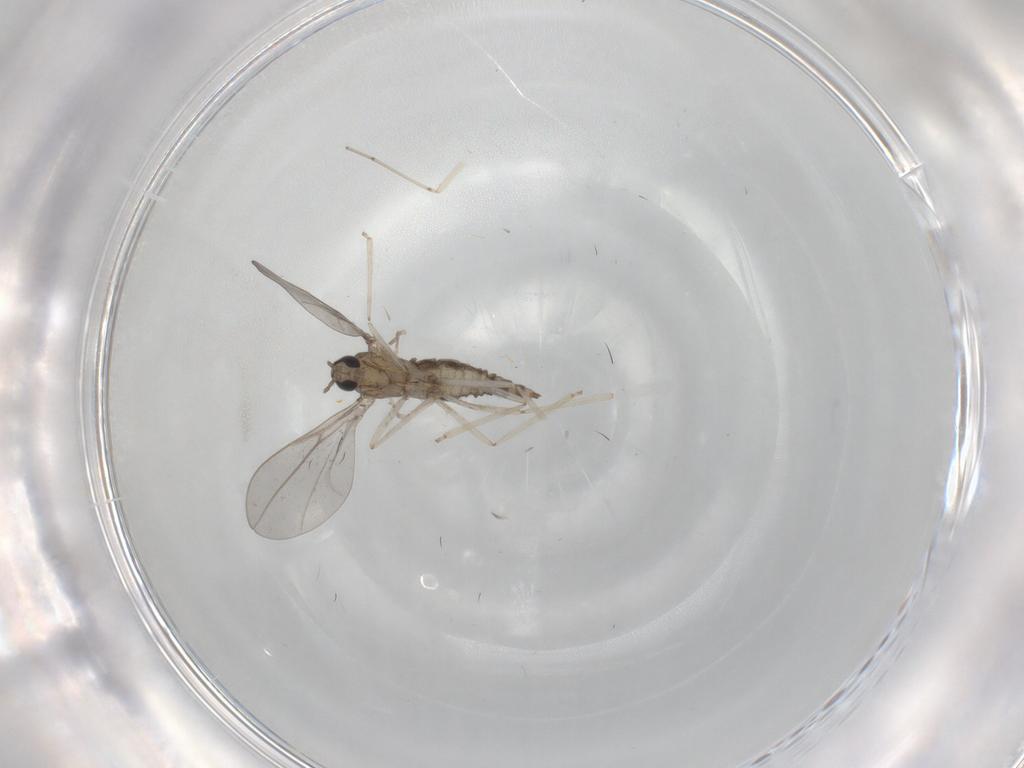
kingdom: Animalia
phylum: Arthropoda
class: Insecta
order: Diptera
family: Cecidomyiidae
